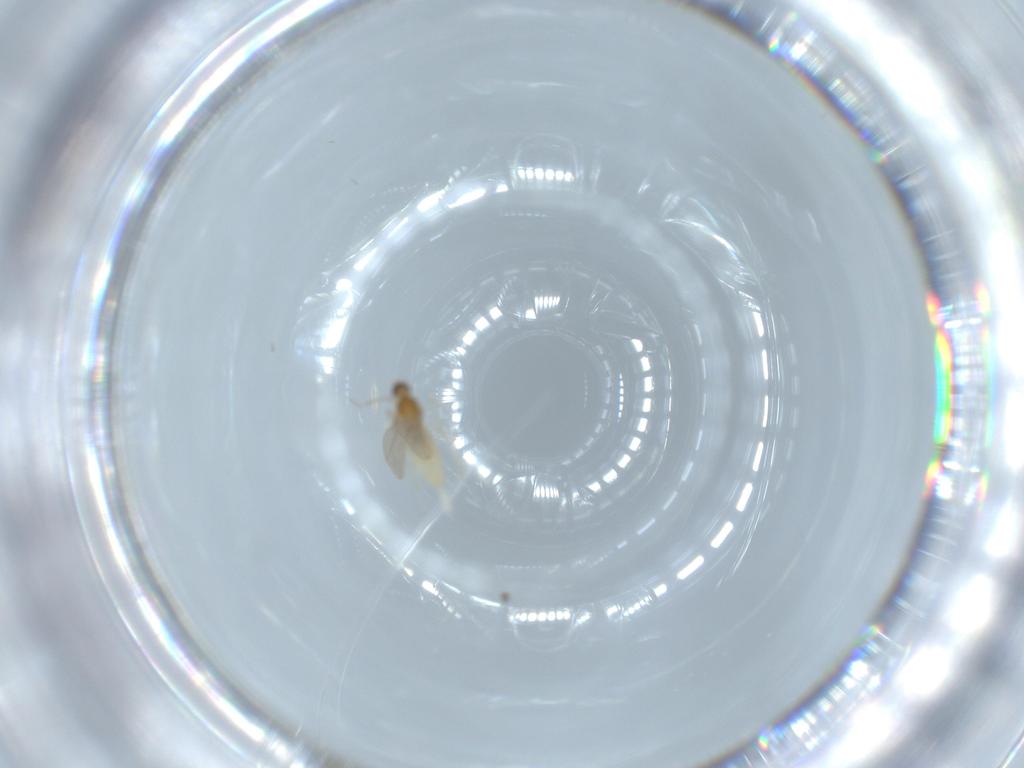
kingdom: Animalia
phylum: Arthropoda
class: Insecta
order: Diptera
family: Cecidomyiidae
